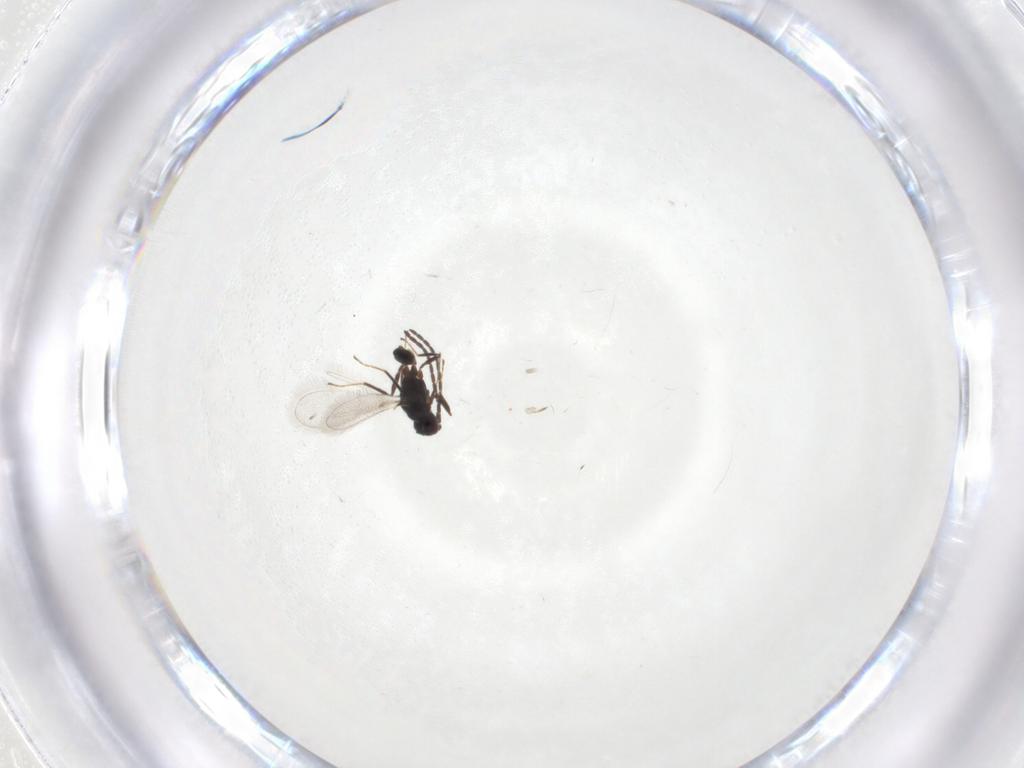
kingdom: Animalia
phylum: Arthropoda
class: Insecta
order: Hymenoptera
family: Mymaridae
